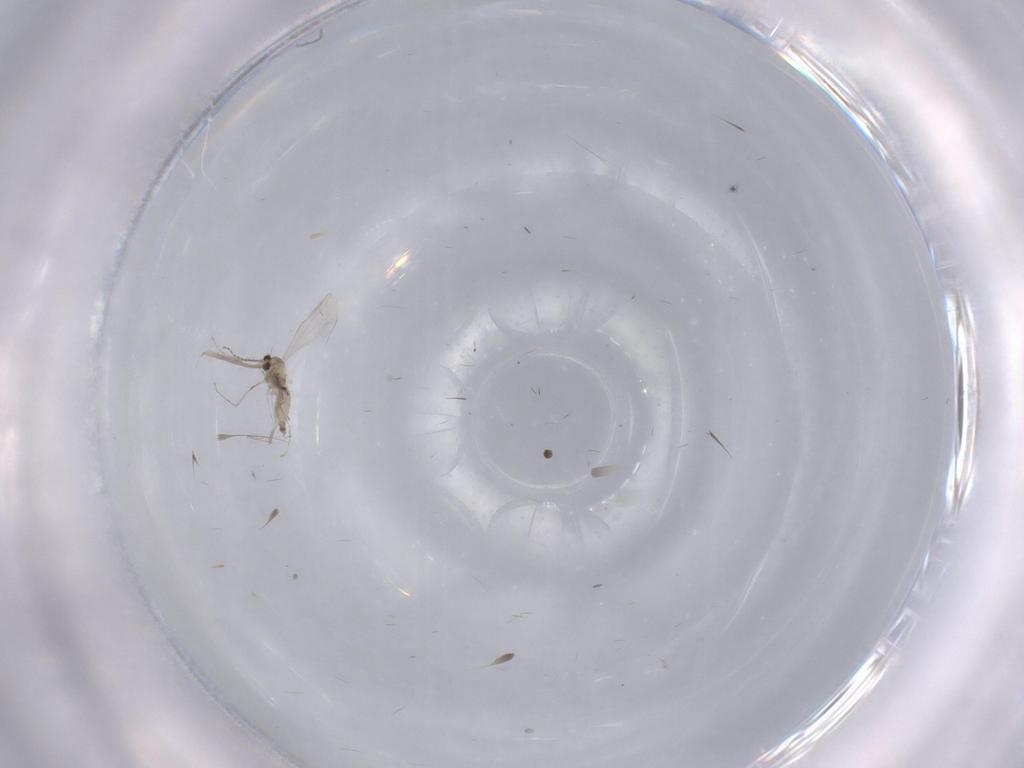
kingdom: Animalia
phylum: Arthropoda
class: Insecta
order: Diptera
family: Cecidomyiidae
